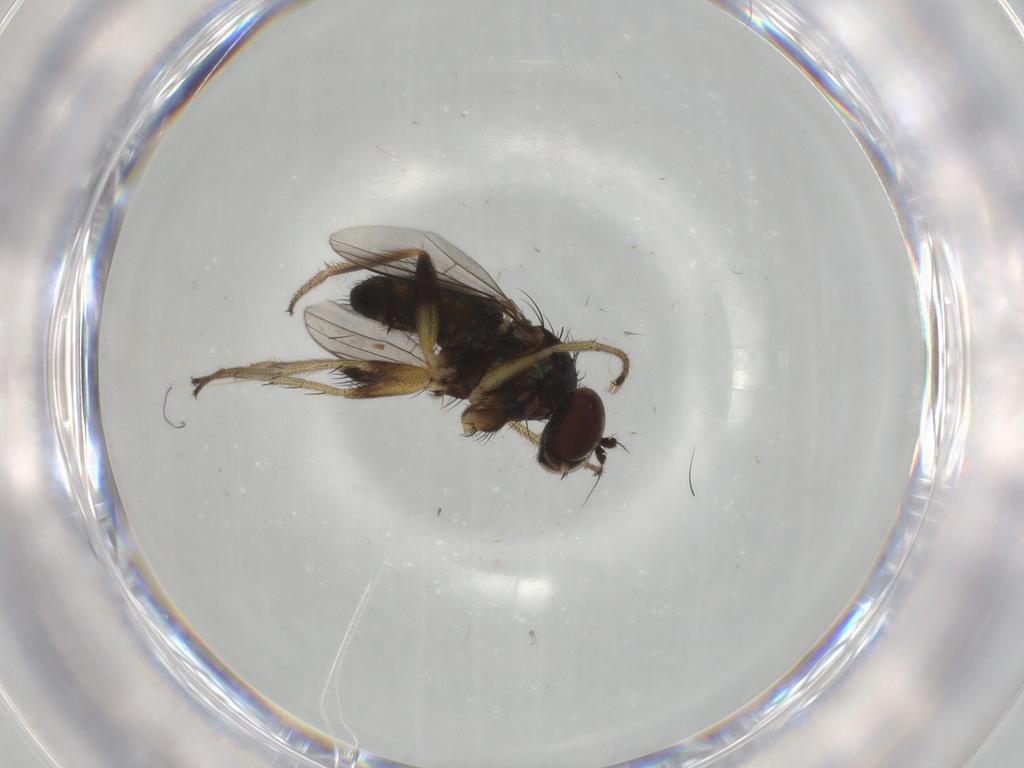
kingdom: Animalia
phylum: Arthropoda
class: Insecta
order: Diptera
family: Dolichopodidae
